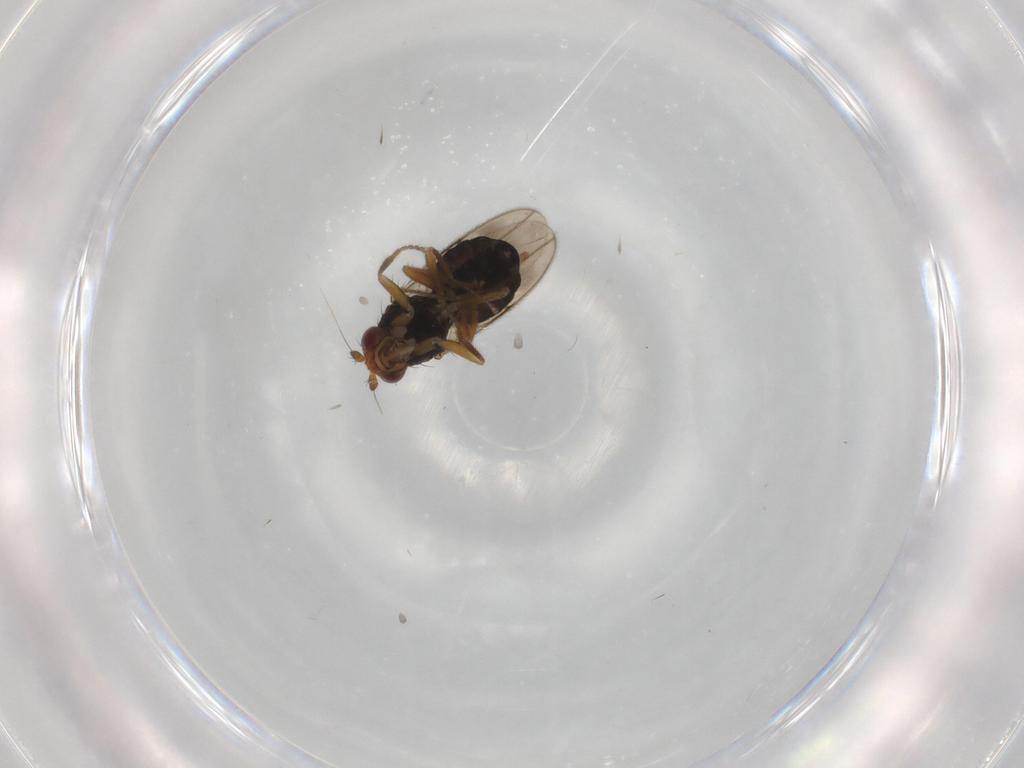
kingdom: Animalia
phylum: Arthropoda
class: Insecta
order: Diptera
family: Sphaeroceridae
